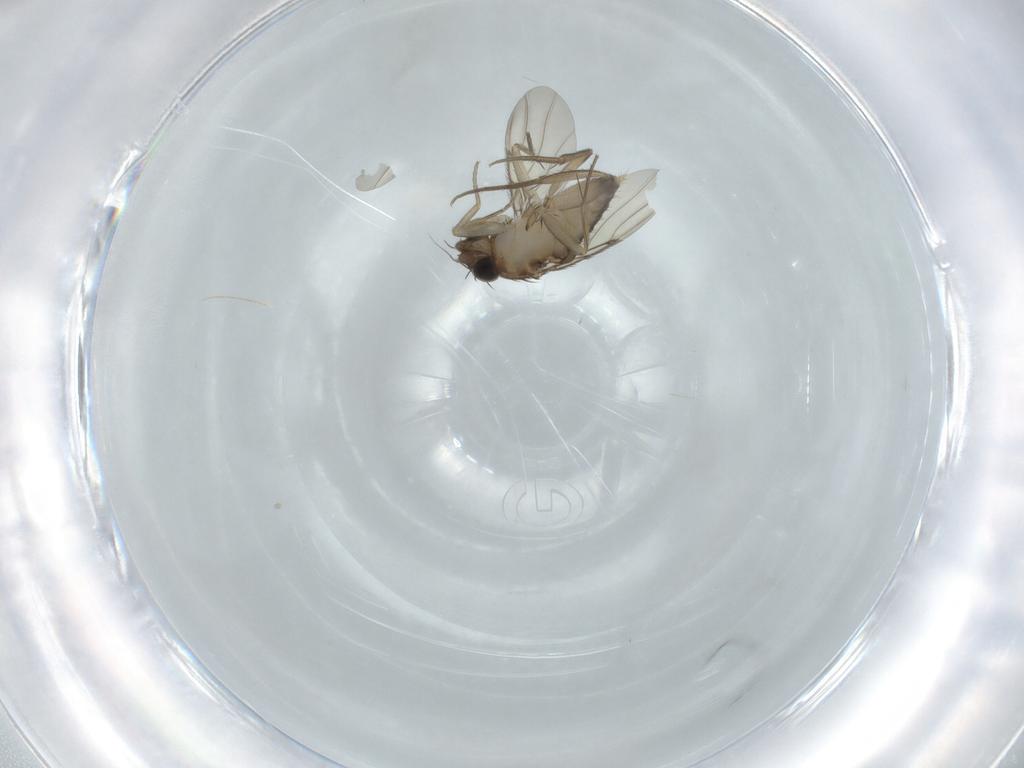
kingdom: Animalia
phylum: Arthropoda
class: Insecta
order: Diptera
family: Phoridae
